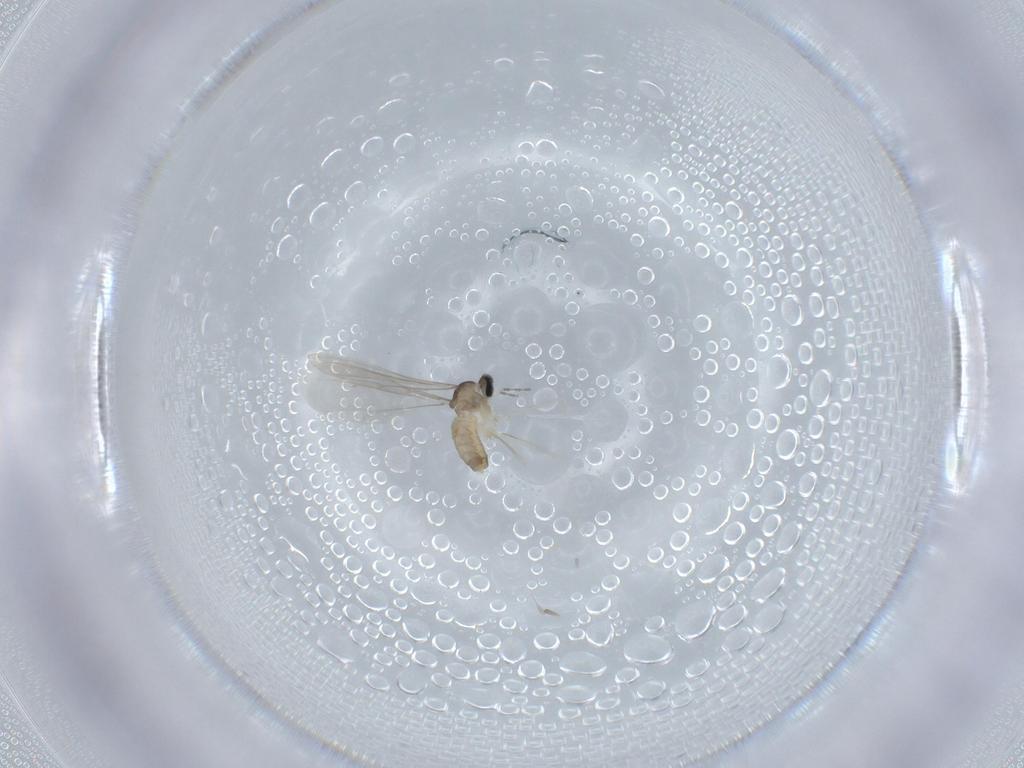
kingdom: Animalia
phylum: Arthropoda
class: Insecta
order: Diptera
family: Cecidomyiidae
